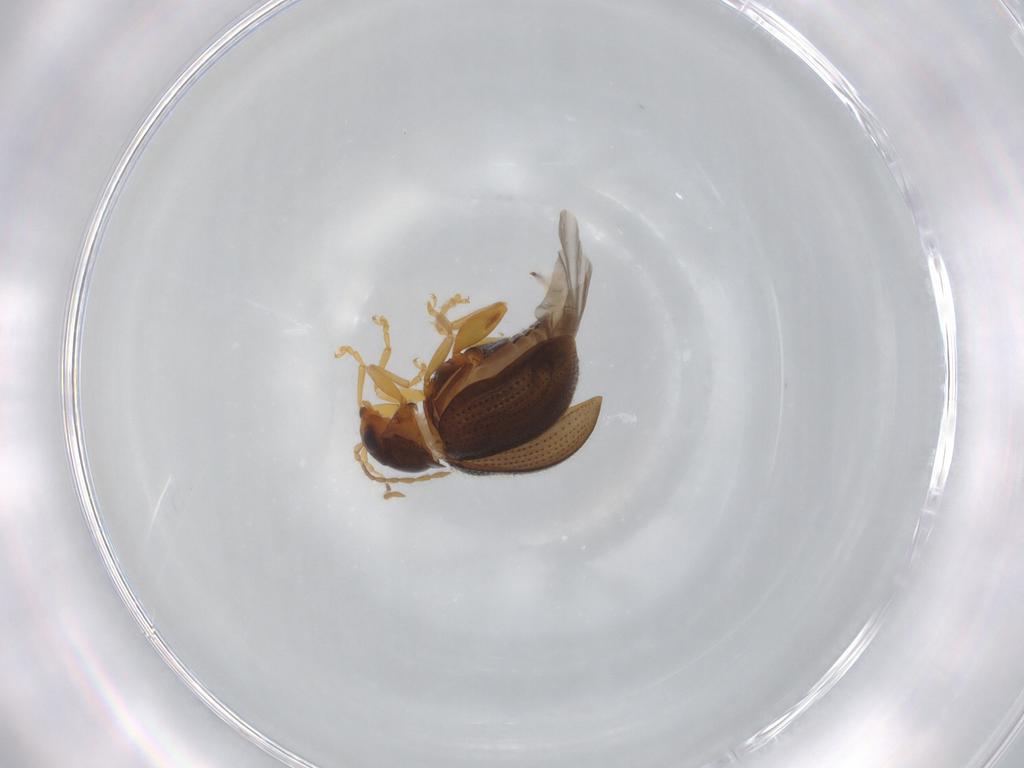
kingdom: Animalia
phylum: Arthropoda
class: Insecta
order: Coleoptera
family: Chrysomelidae
